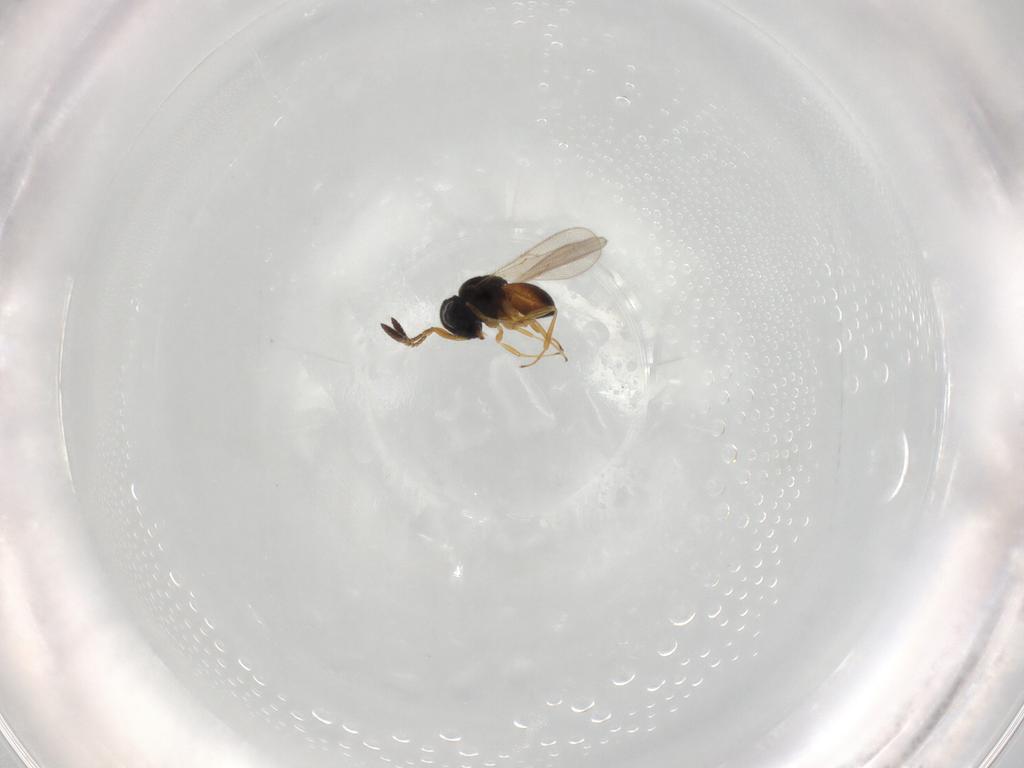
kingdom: Animalia
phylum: Arthropoda
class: Insecta
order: Hymenoptera
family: Scelionidae
